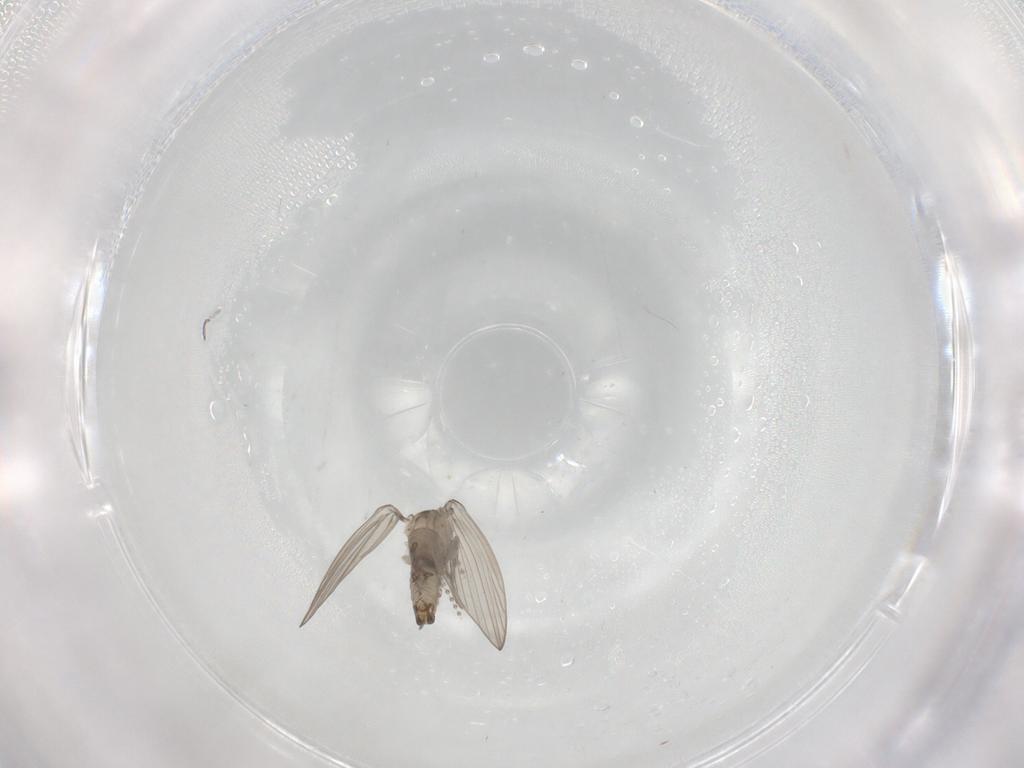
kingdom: Animalia
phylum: Arthropoda
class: Insecta
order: Diptera
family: Psychodidae
